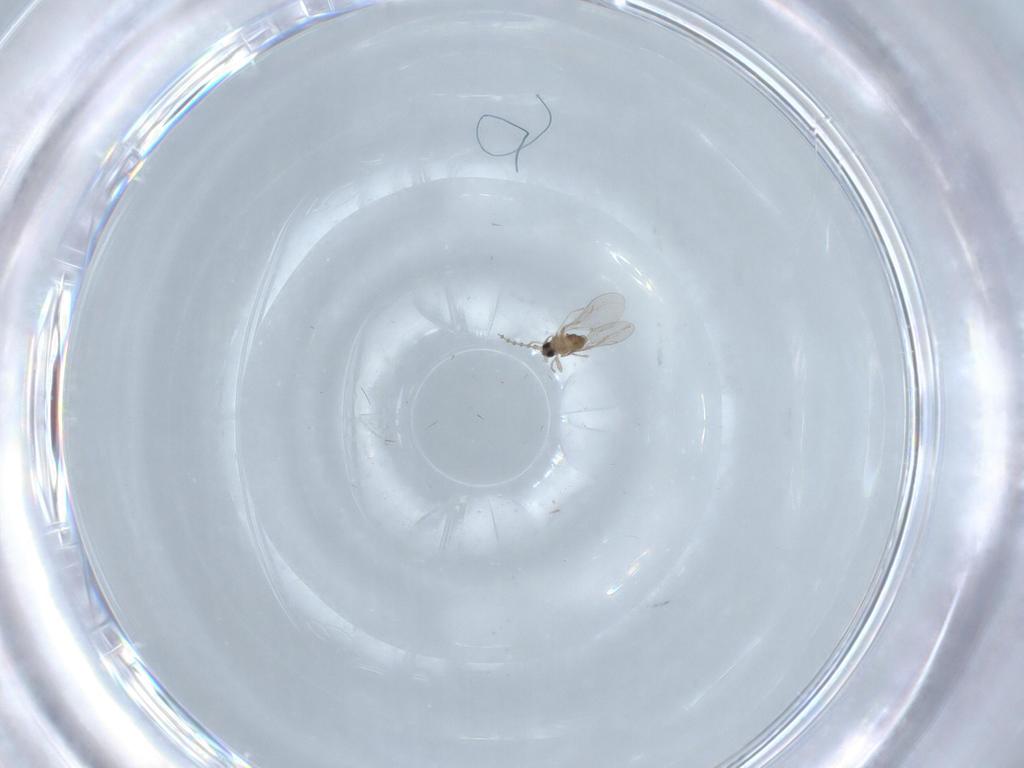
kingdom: Animalia
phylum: Arthropoda
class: Insecta
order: Diptera
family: Cecidomyiidae
